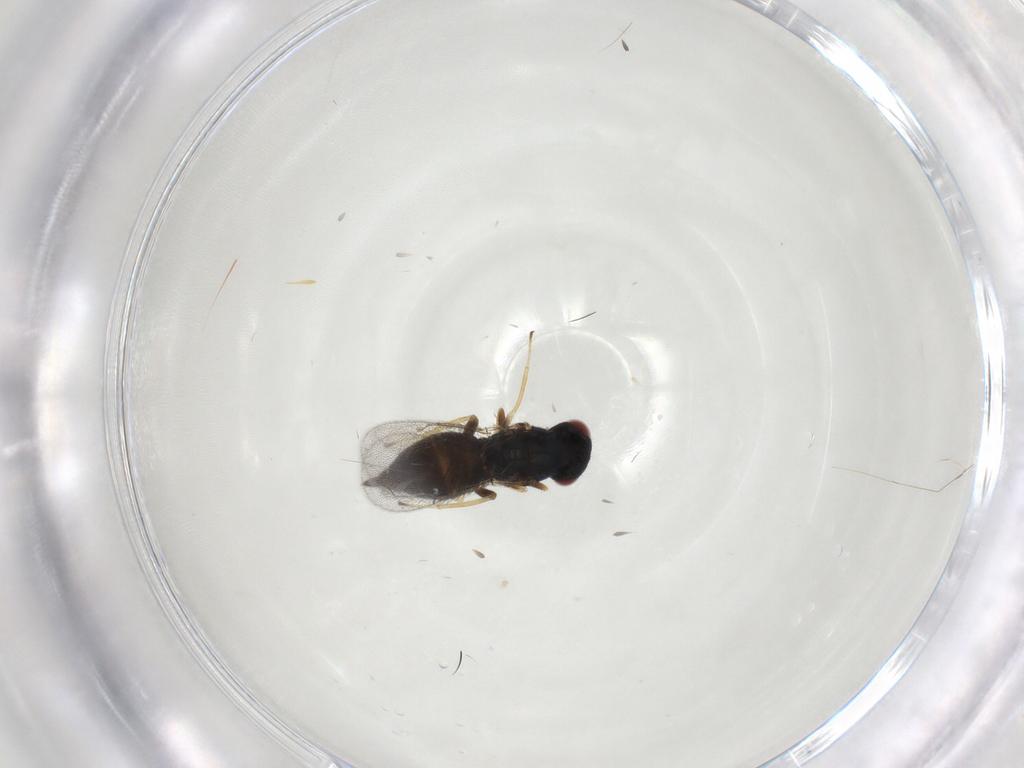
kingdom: Animalia
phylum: Arthropoda
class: Insecta
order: Hymenoptera
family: Eulophidae
